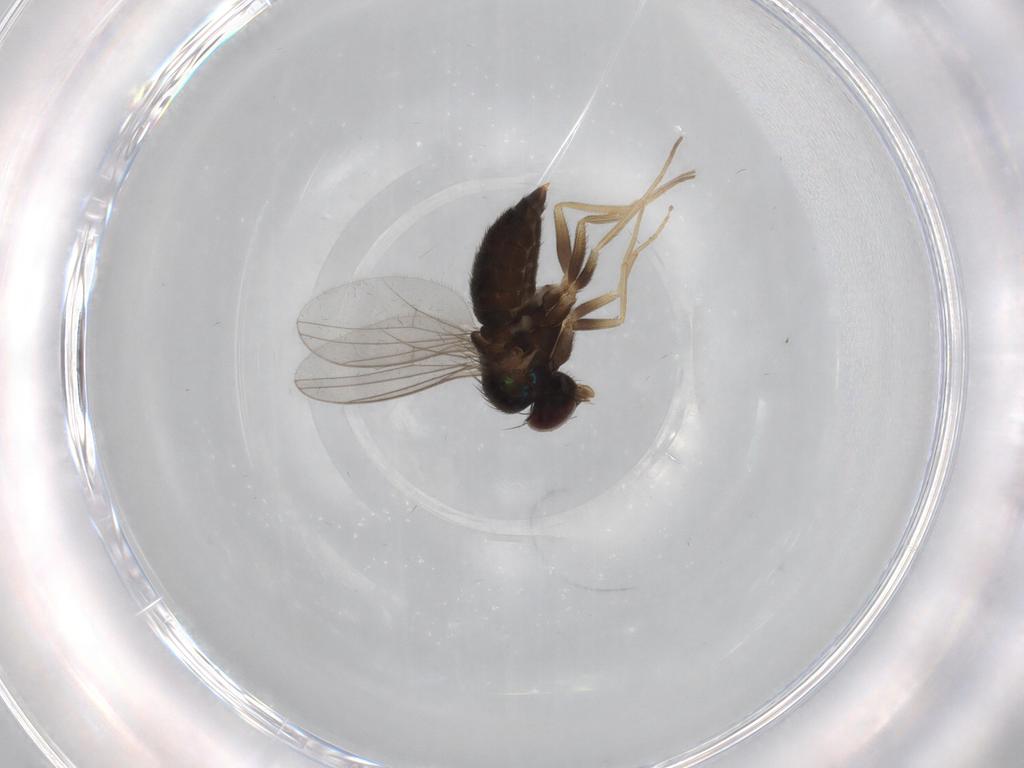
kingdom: Animalia
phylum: Arthropoda
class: Insecta
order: Diptera
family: Dolichopodidae
